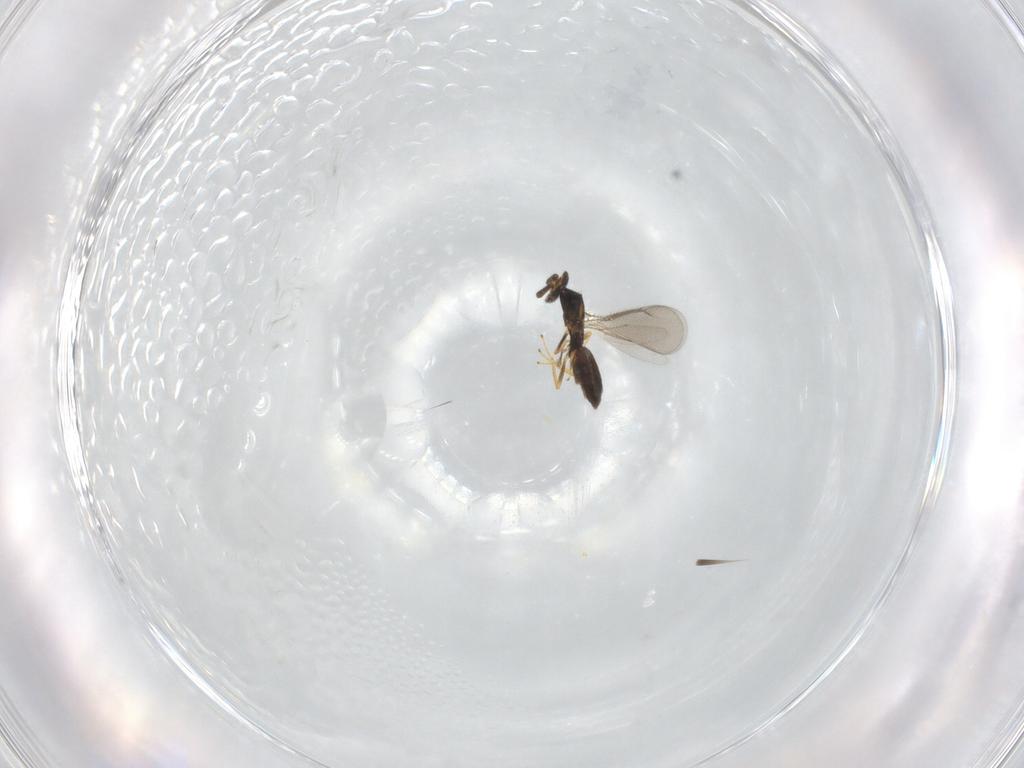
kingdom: Animalia
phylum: Arthropoda
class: Insecta
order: Hymenoptera
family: Eulophidae
